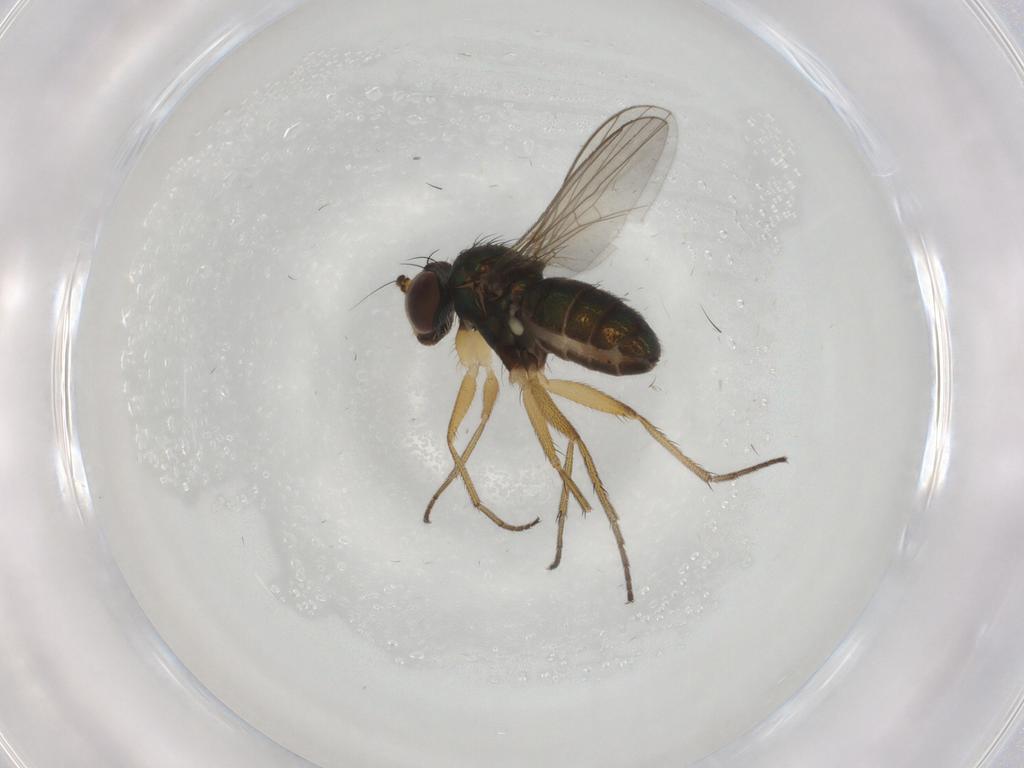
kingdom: Animalia
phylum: Arthropoda
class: Insecta
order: Diptera
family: Dolichopodidae
